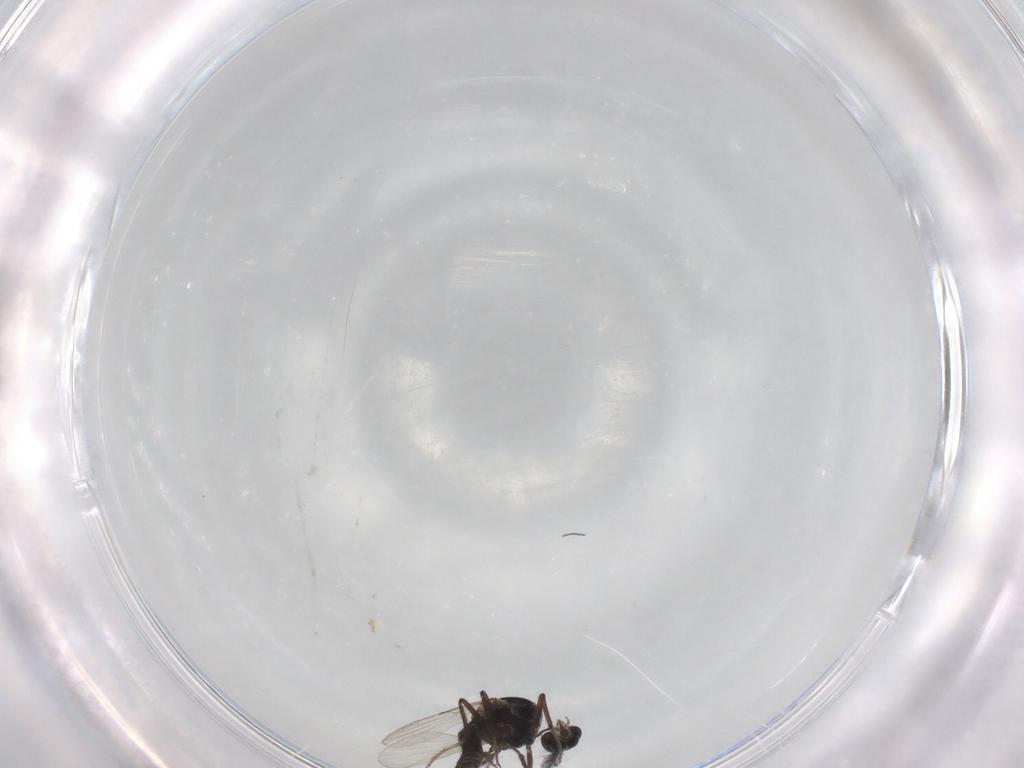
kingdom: Animalia
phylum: Arthropoda
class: Insecta
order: Diptera
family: Ceratopogonidae
